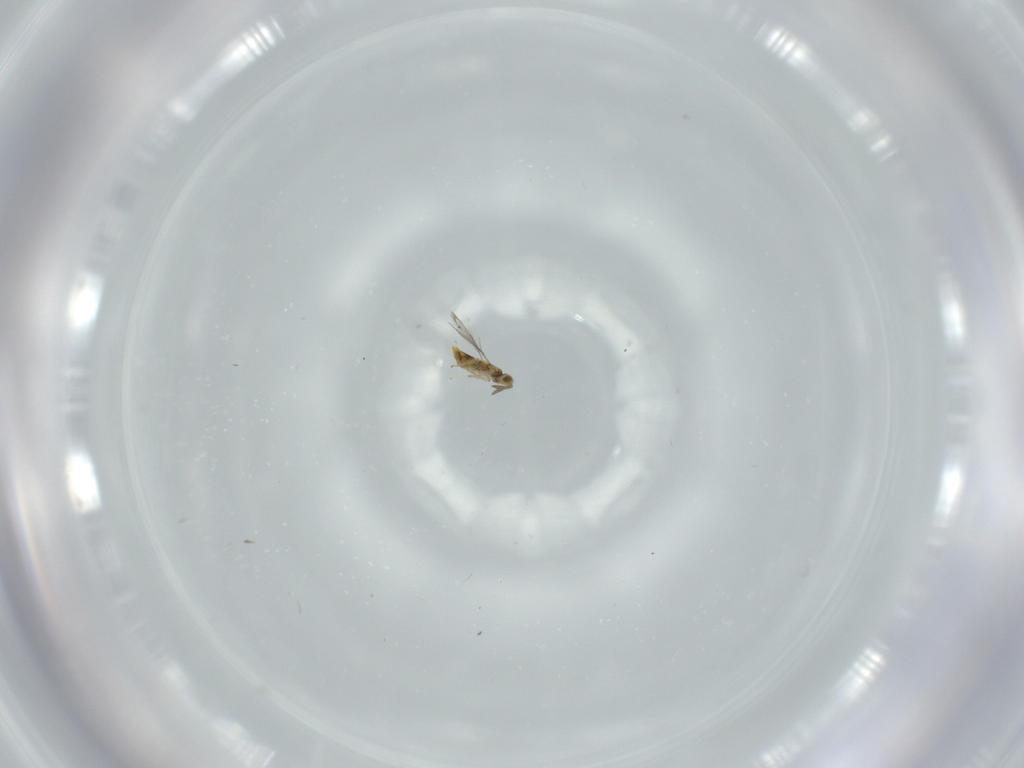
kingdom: Animalia
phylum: Arthropoda
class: Insecta
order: Hymenoptera
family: Aphelinidae
